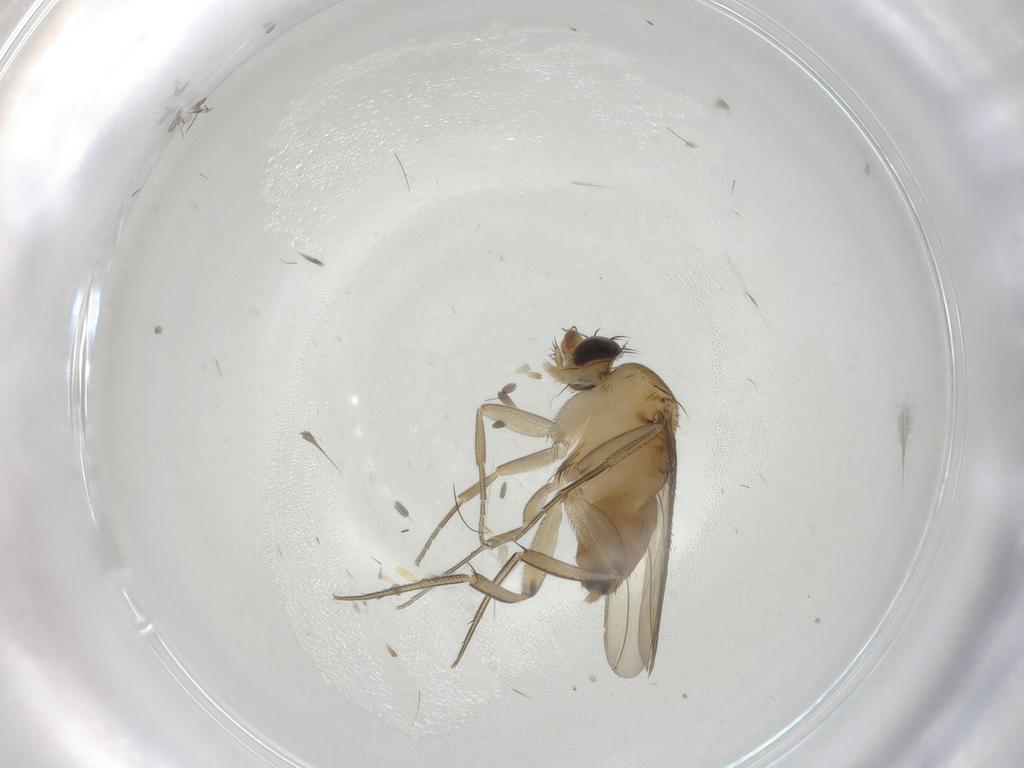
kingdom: Animalia
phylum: Arthropoda
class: Insecta
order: Diptera
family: Phoridae
